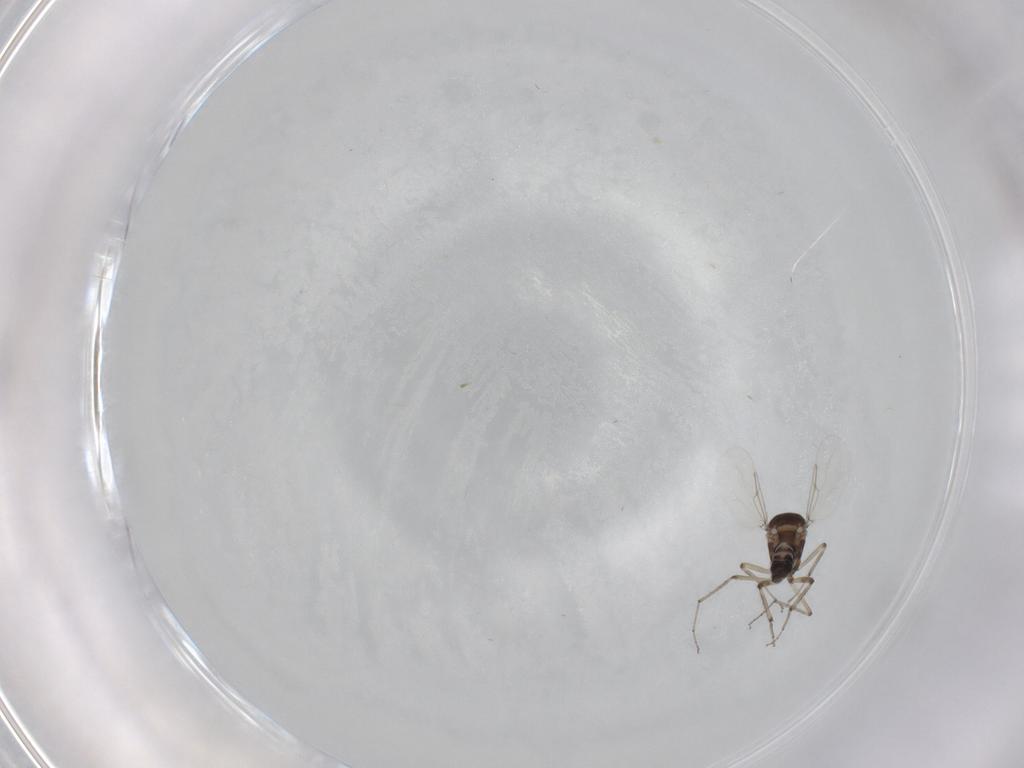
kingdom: Animalia
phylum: Arthropoda
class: Insecta
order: Diptera
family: Ceratopogonidae
